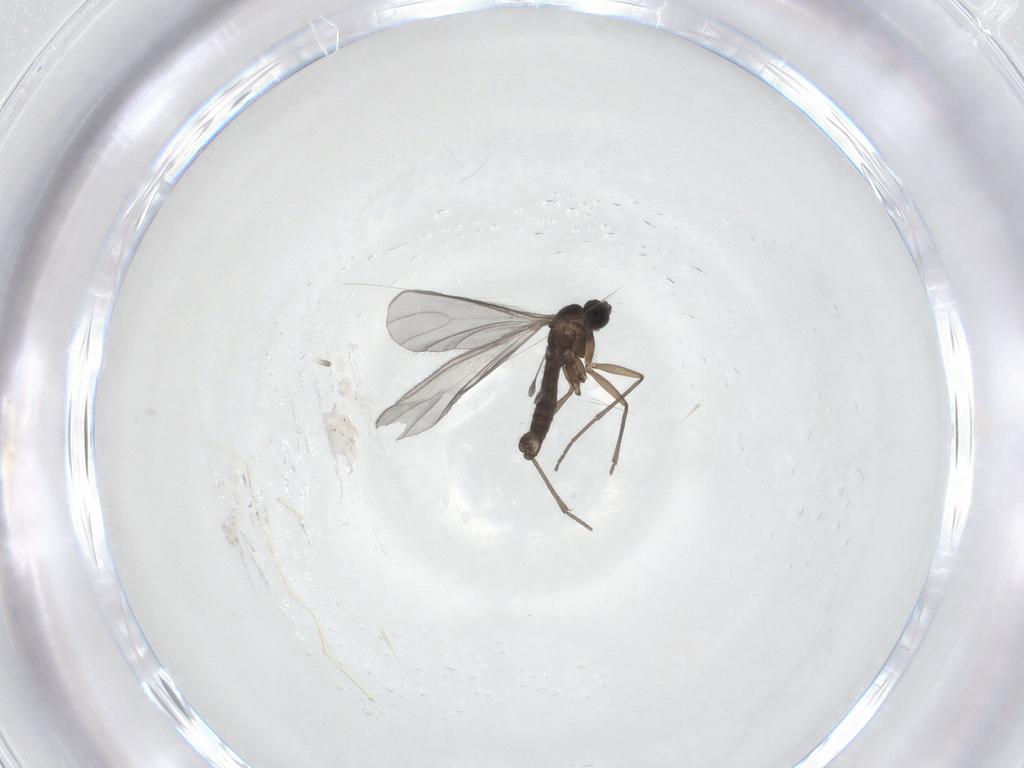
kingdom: Animalia
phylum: Arthropoda
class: Insecta
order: Diptera
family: Sciaridae
